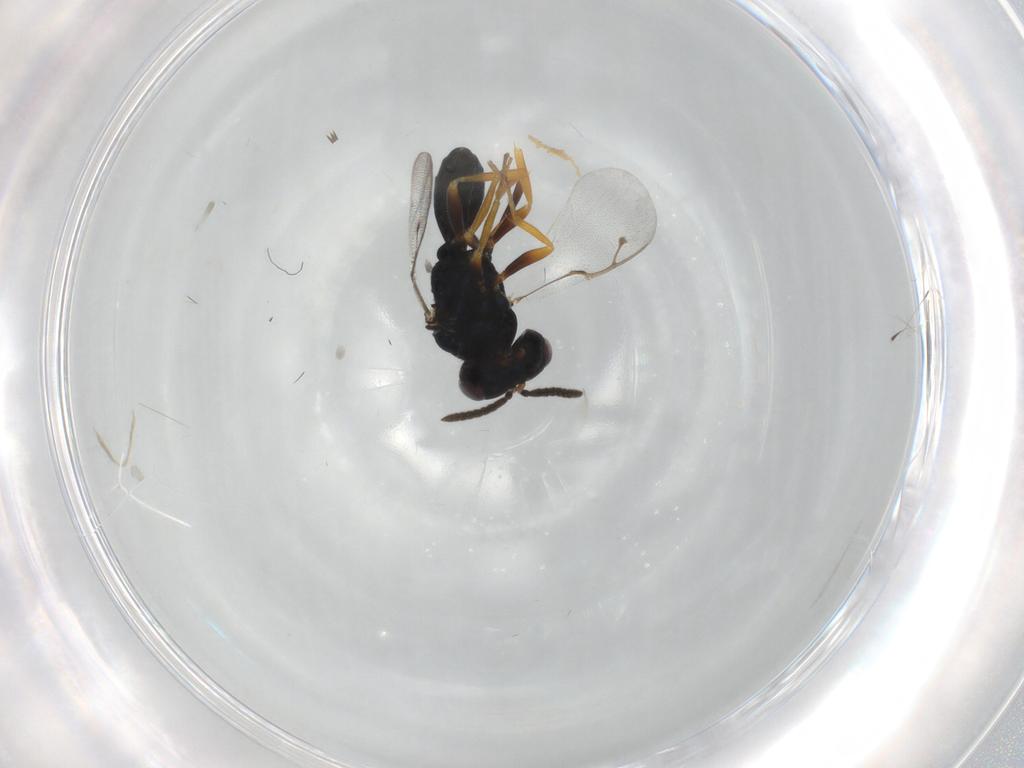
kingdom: Animalia
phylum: Arthropoda
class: Insecta
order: Hymenoptera
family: Pteromalidae
